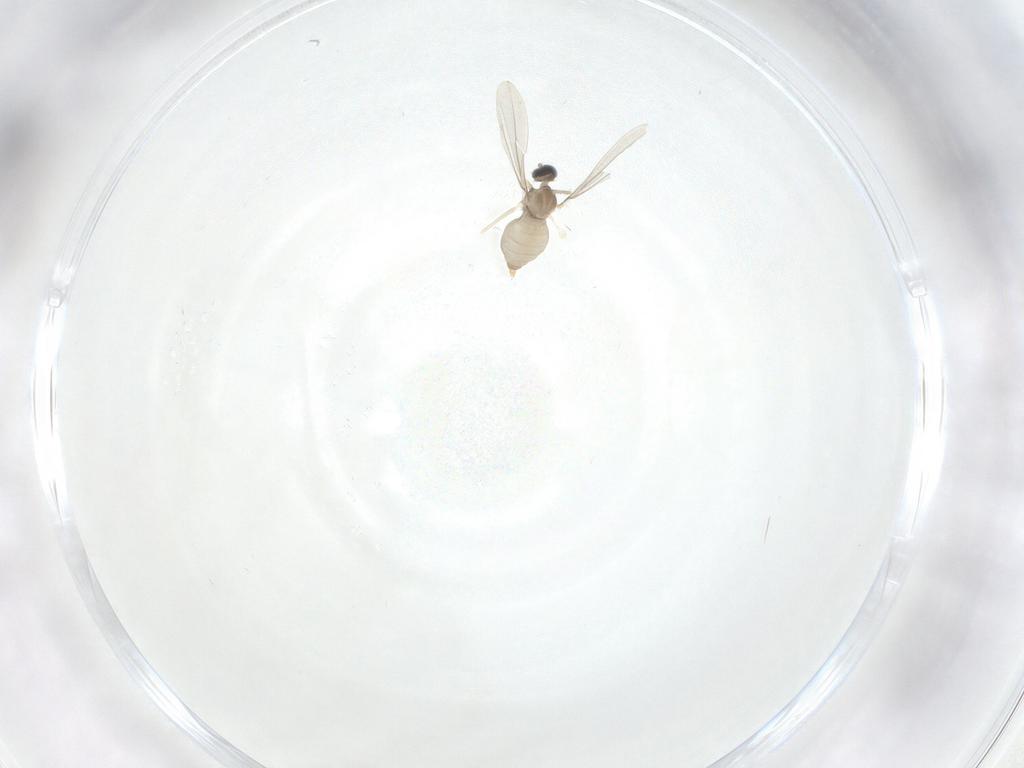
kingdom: Animalia
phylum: Arthropoda
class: Insecta
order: Diptera
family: Cecidomyiidae
